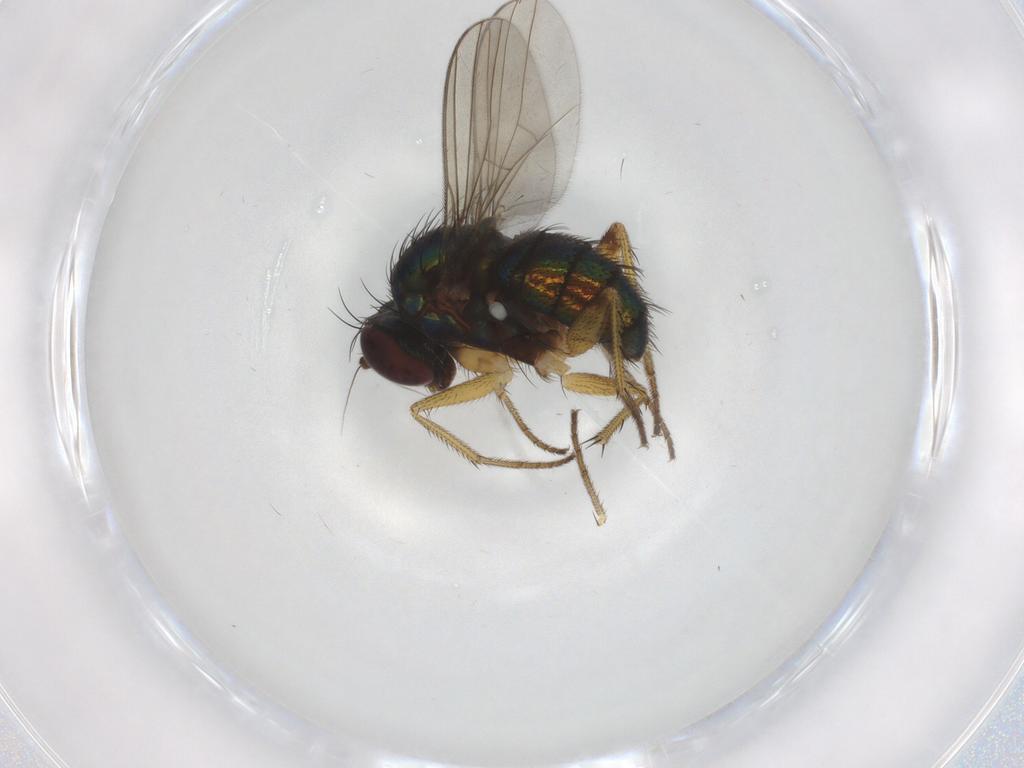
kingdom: Animalia
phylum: Arthropoda
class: Insecta
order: Diptera
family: Dolichopodidae
